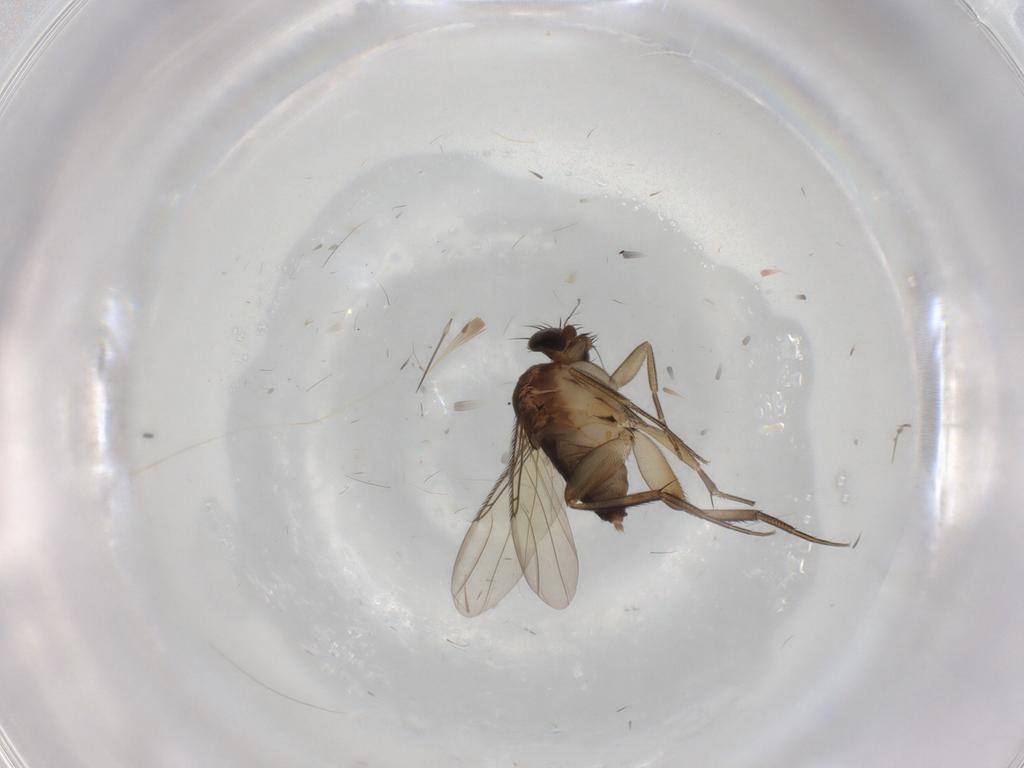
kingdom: Animalia
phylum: Arthropoda
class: Insecta
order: Diptera
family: Phoridae
